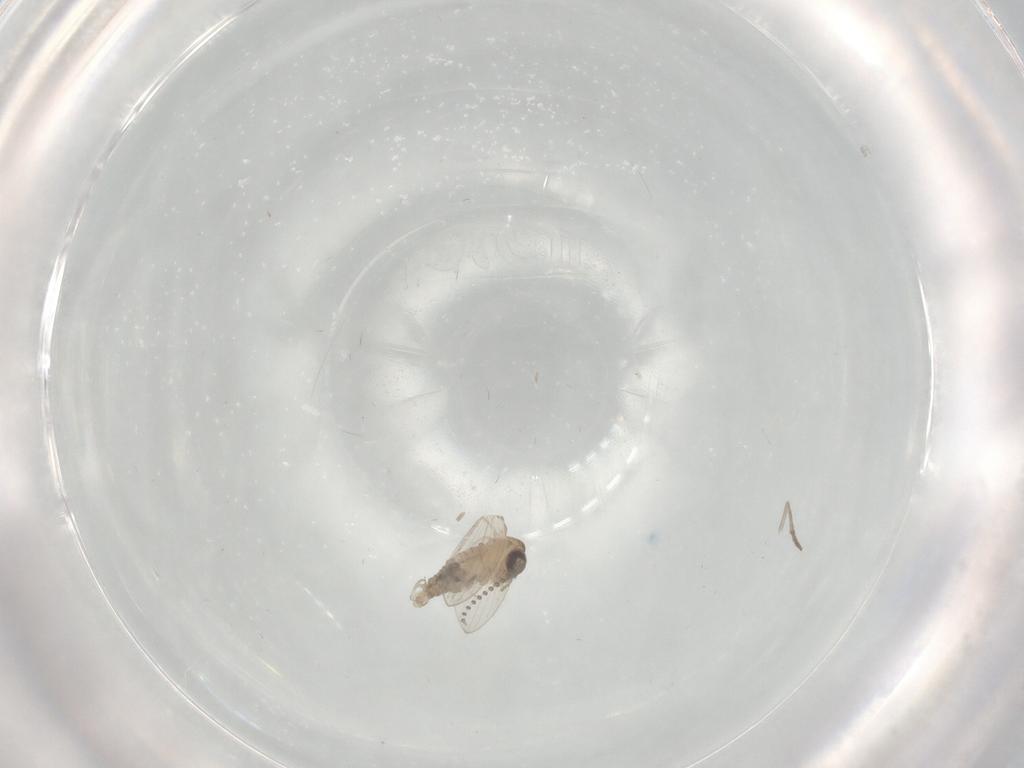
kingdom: Animalia
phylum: Arthropoda
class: Insecta
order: Diptera
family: Psychodidae
